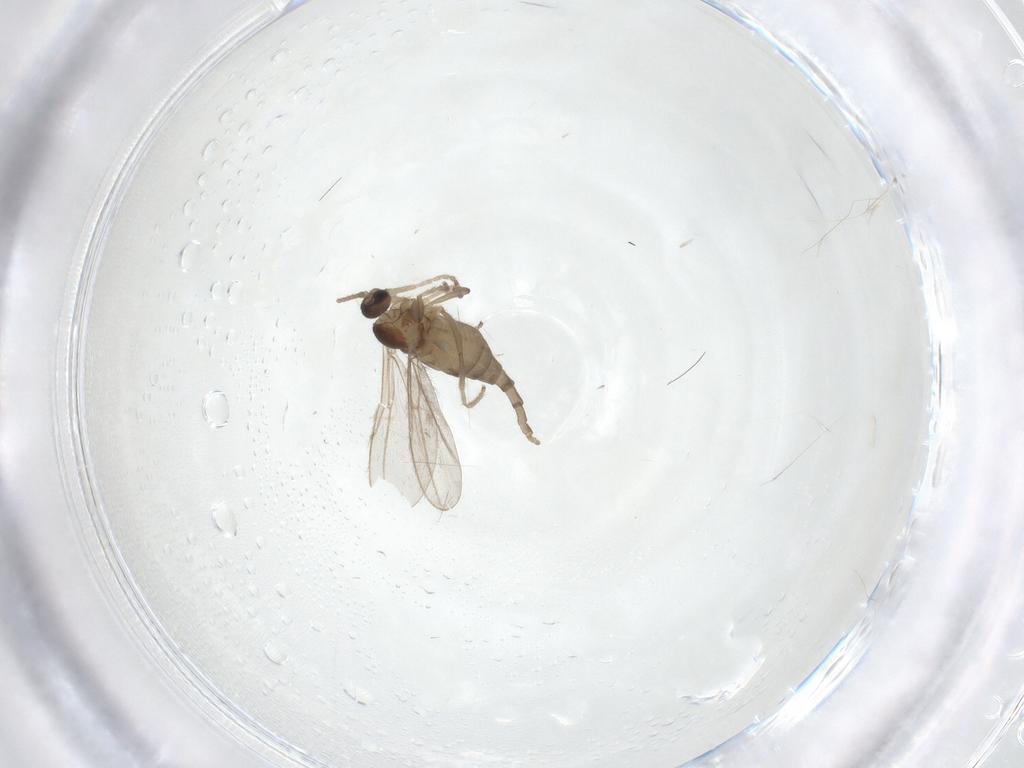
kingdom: Animalia
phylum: Arthropoda
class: Insecta
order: Diptera
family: Cecidomyiidae
